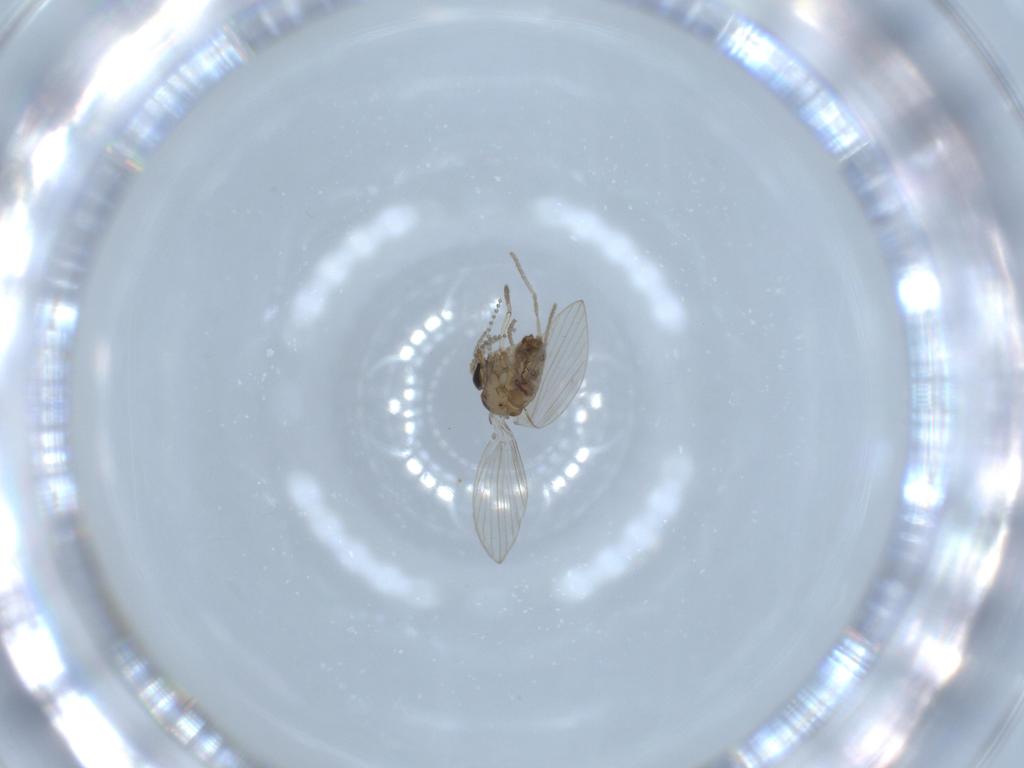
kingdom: Animalia
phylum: Arthropoda
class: Insecta
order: Diptera
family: Psychodidae
